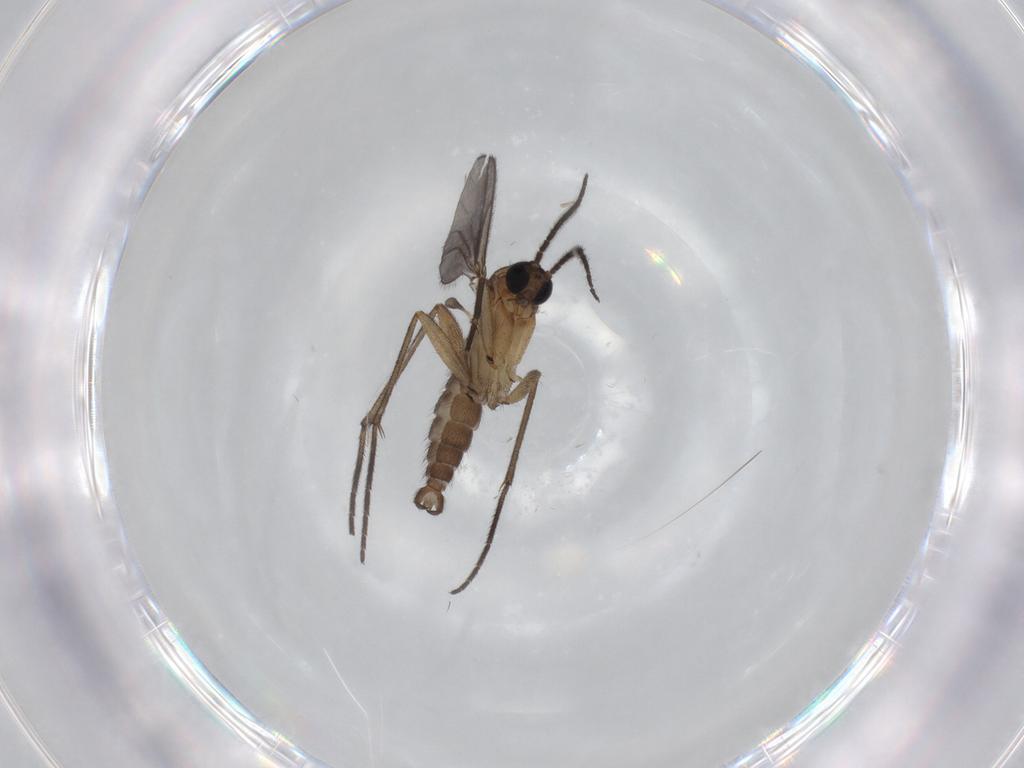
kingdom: Animalia
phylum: Arthropoda
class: Insecta
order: Diptera
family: Sciaridae
